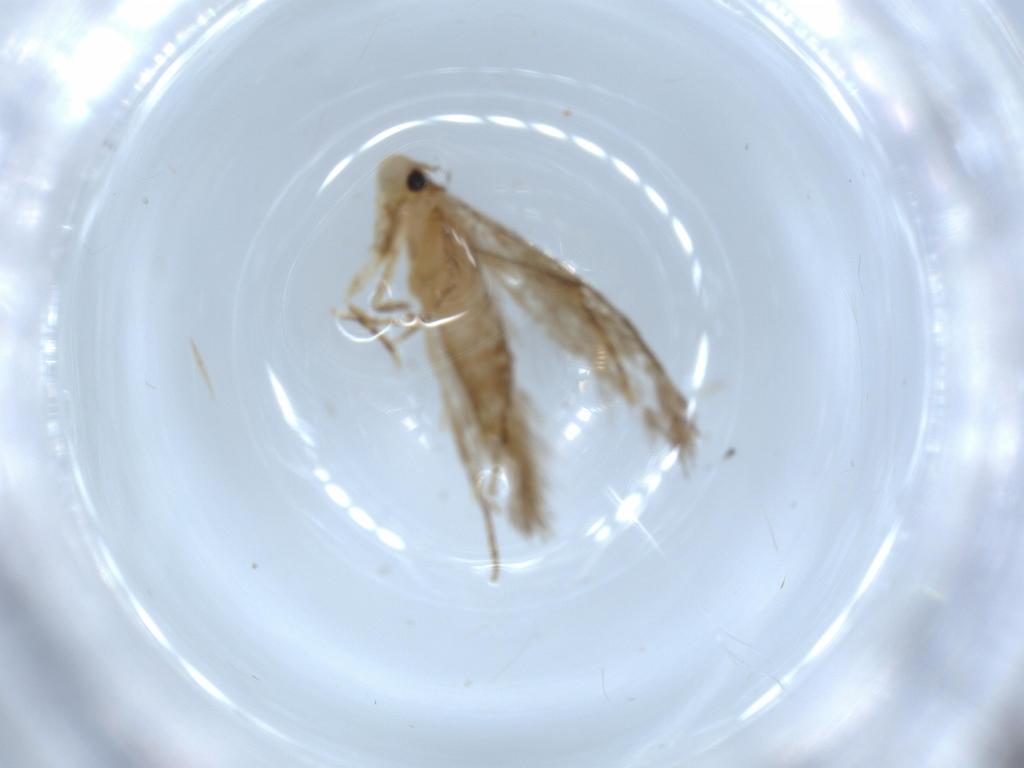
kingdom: Animalia
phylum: Arthropoda
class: Insecta
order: Lepidoptera
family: Tineidae
